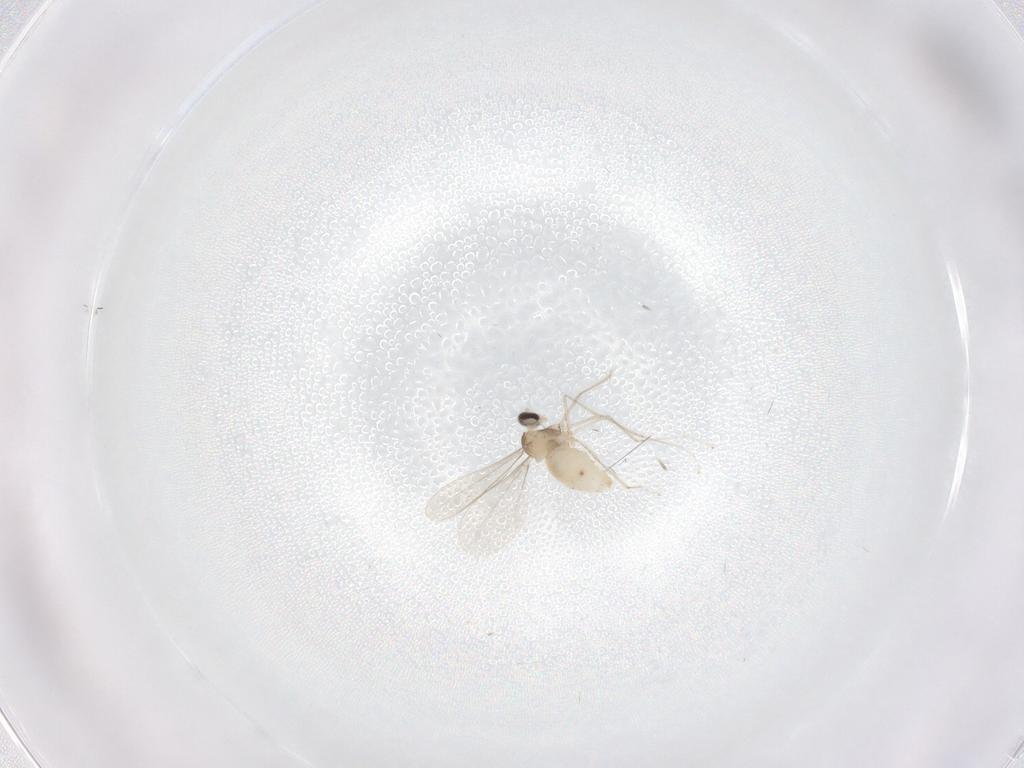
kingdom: Animalia
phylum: Arthropoda
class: Insecta
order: Diptera
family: Cecidomyiidae
